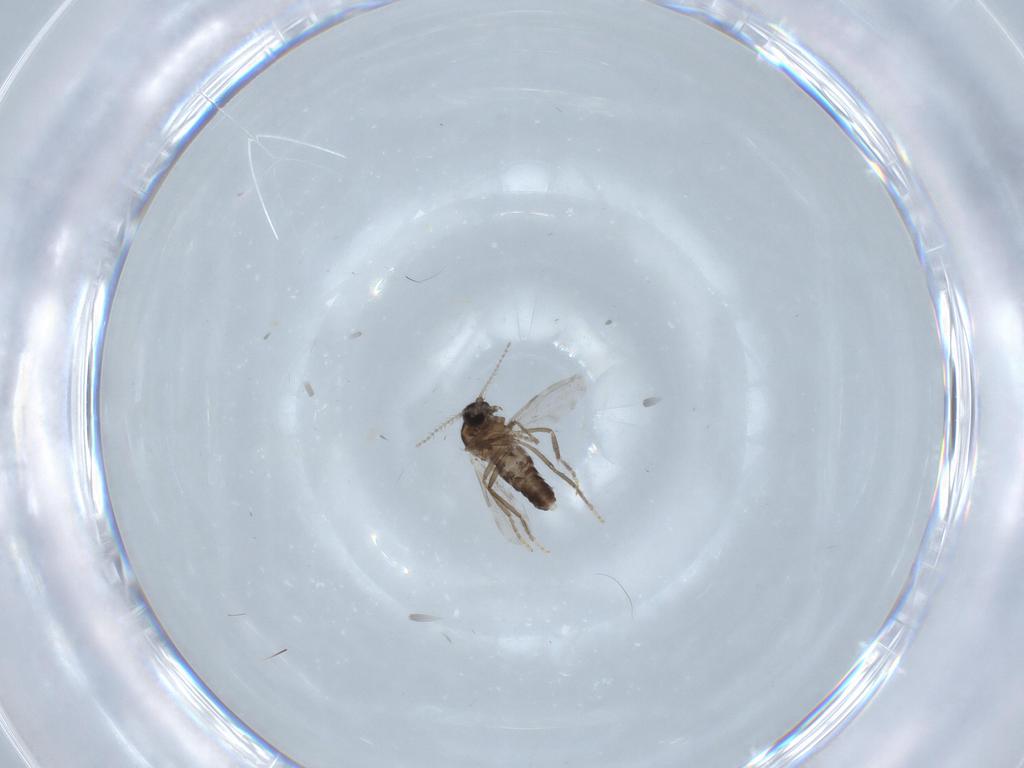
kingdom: Animalia
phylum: Arthropoda
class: Insecta
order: Diptera
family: Ceratopogonidae
